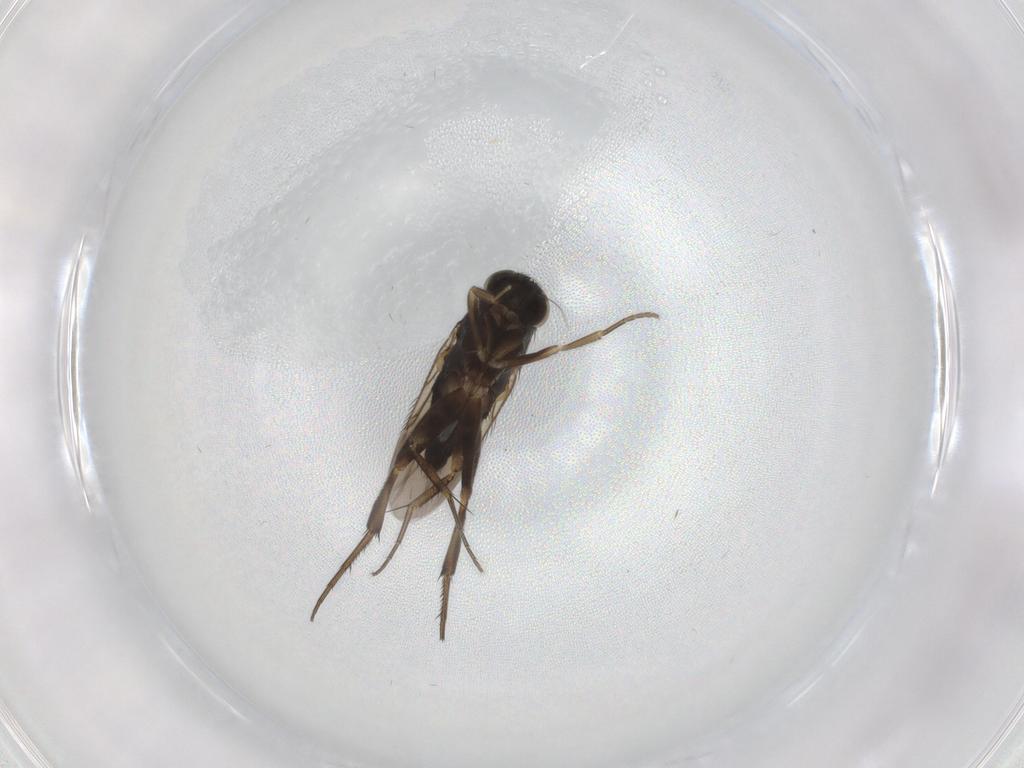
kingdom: Animalia
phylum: Arthropoda
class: Insecta
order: Diptera
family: Phoridae
